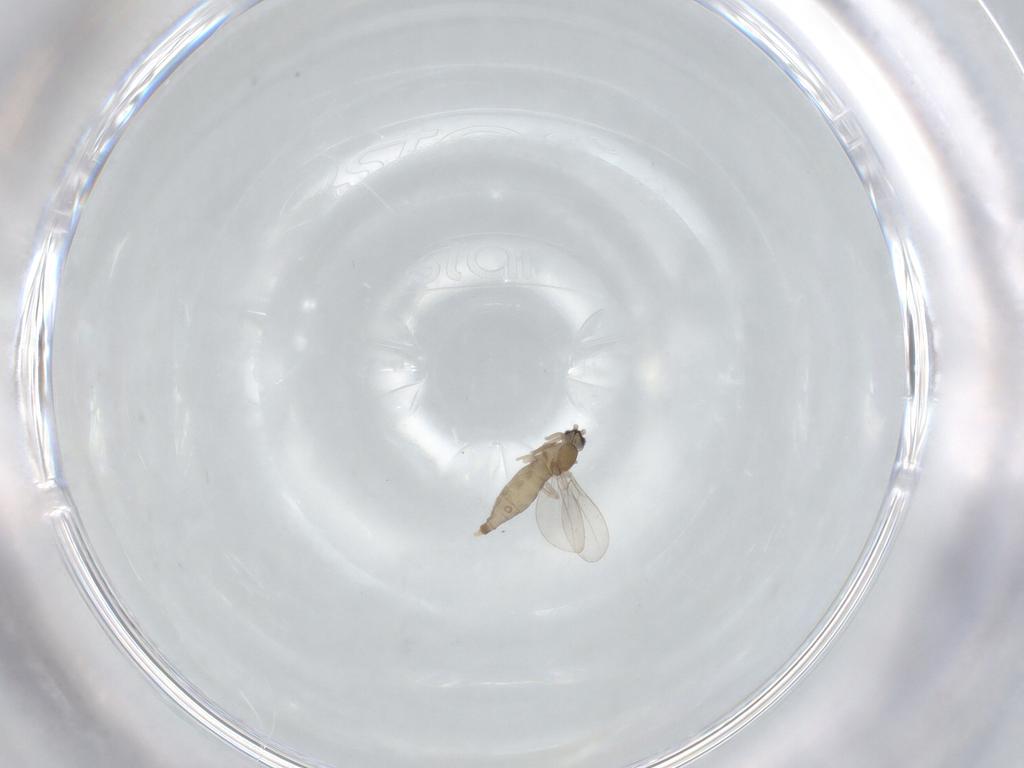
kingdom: Animalia
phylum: Arthropoda
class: Insecta
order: Diptera
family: Cecidomyiidae
